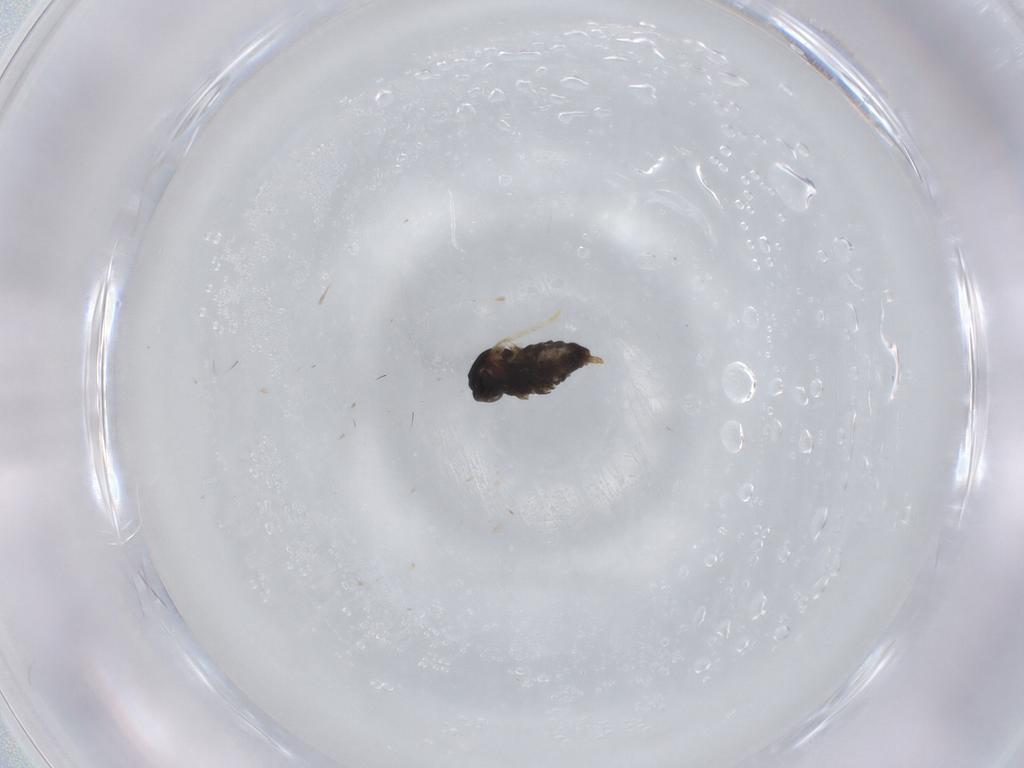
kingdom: Animalia
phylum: Arthropoda
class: Insecta
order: Diptera
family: Cecidomyiidae
